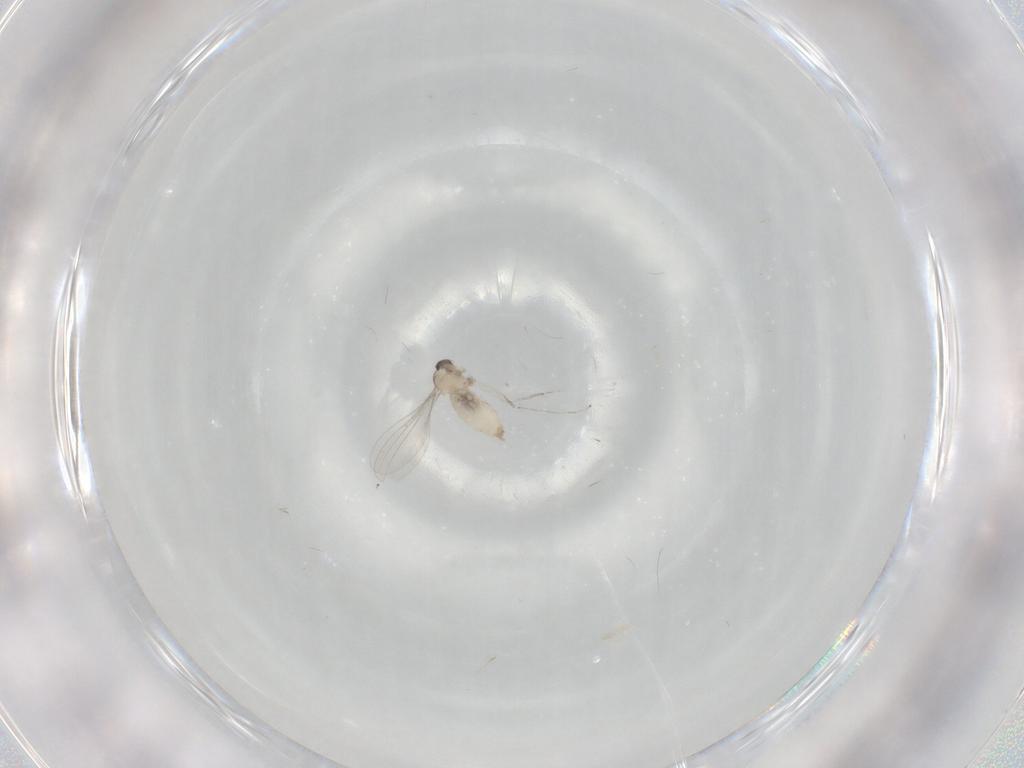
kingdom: Animalia
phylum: Arthropoda
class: Insecta
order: Diptera
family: Cecidomyiidae
